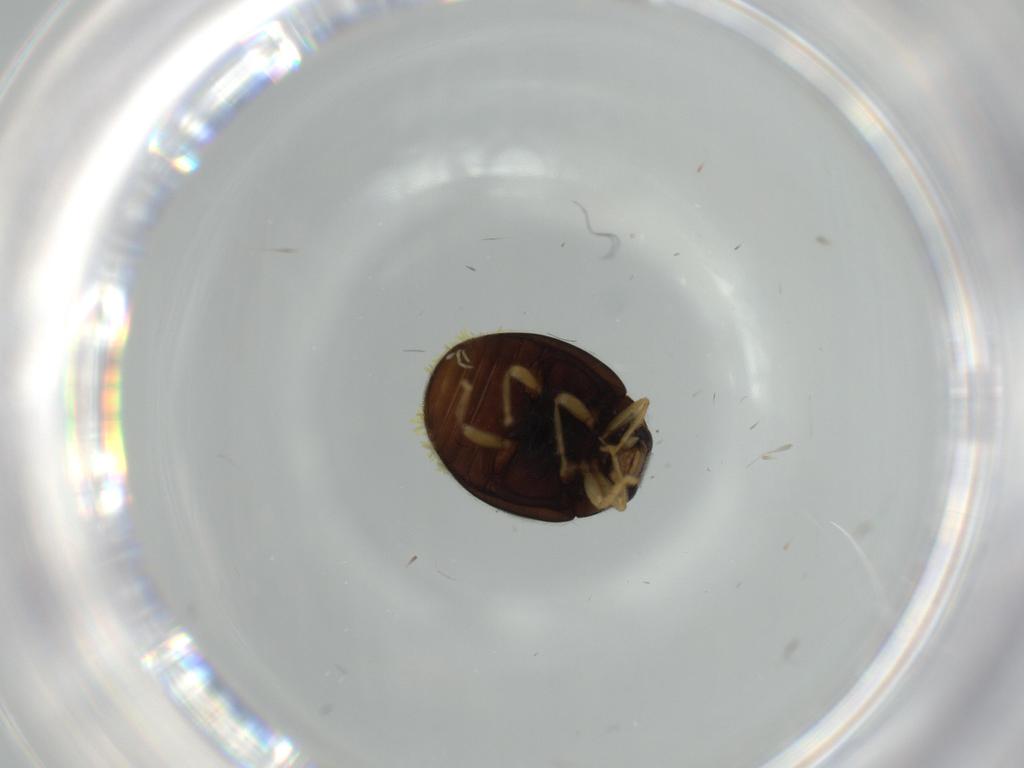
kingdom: Animalia
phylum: Arthropoda
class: Insecta
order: Coleoptera
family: Coccinellidae
